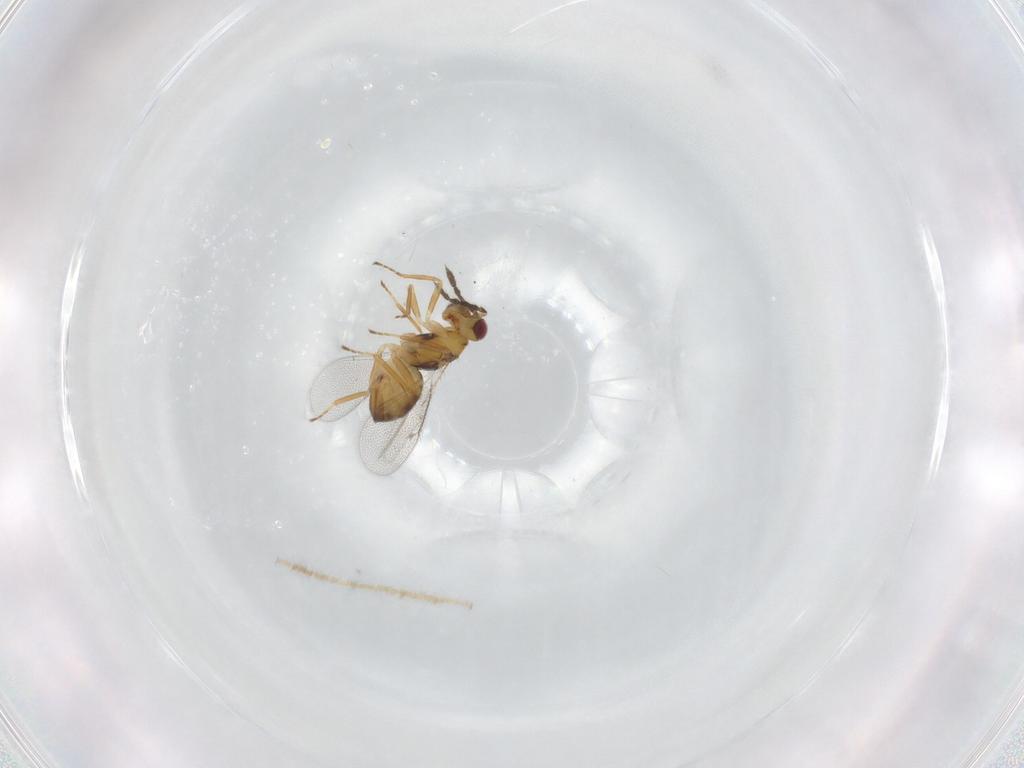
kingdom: Animalia
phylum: Arthropoda
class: Insecta
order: Hymenoptera
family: Eulophidae
